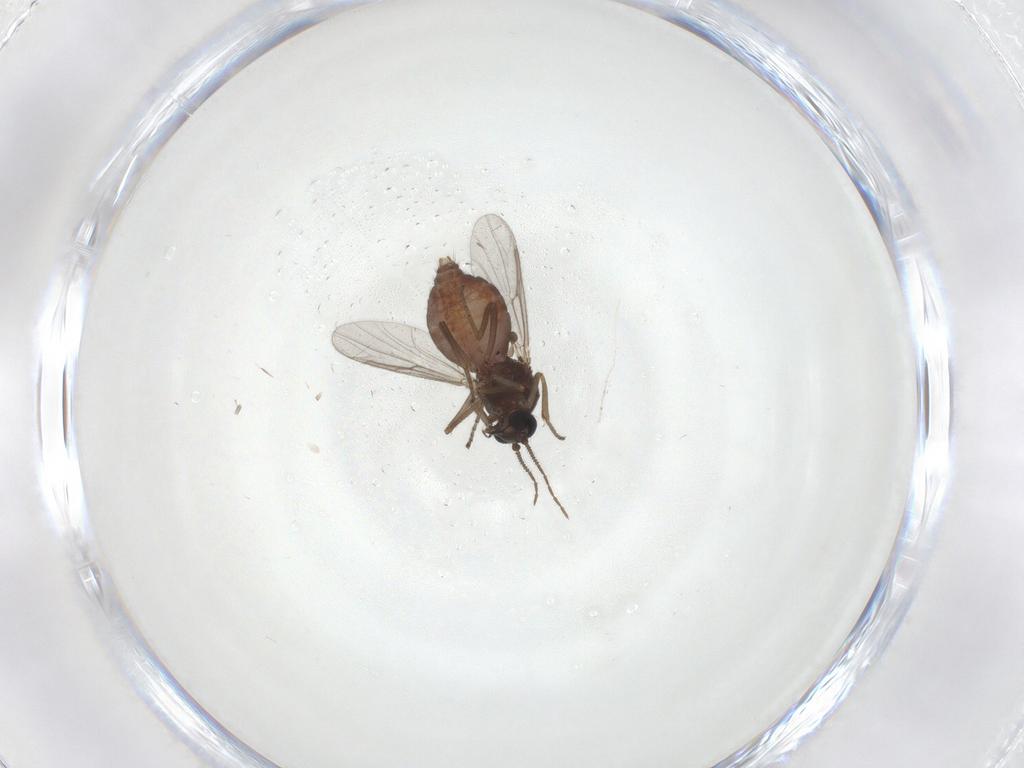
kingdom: Animalia
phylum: Arthropoda
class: Insecta
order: Diptera
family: Ceratopogonidae
